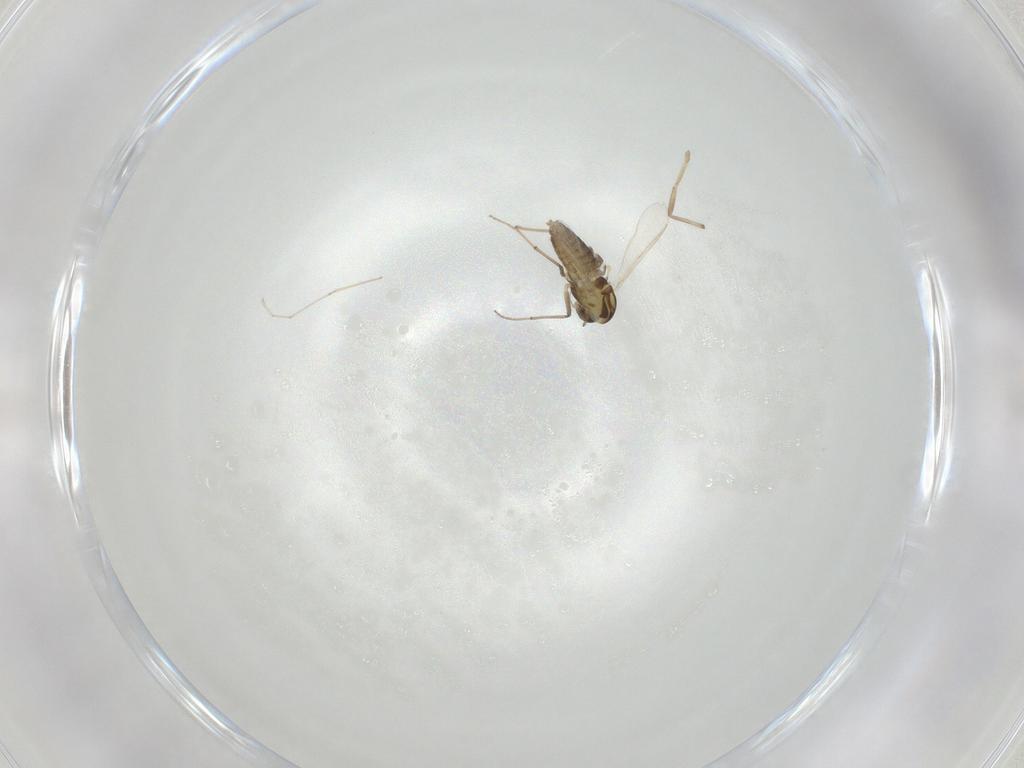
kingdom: Animalia
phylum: Arthropoda
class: Insecta
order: Diptera
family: Chironomidae
